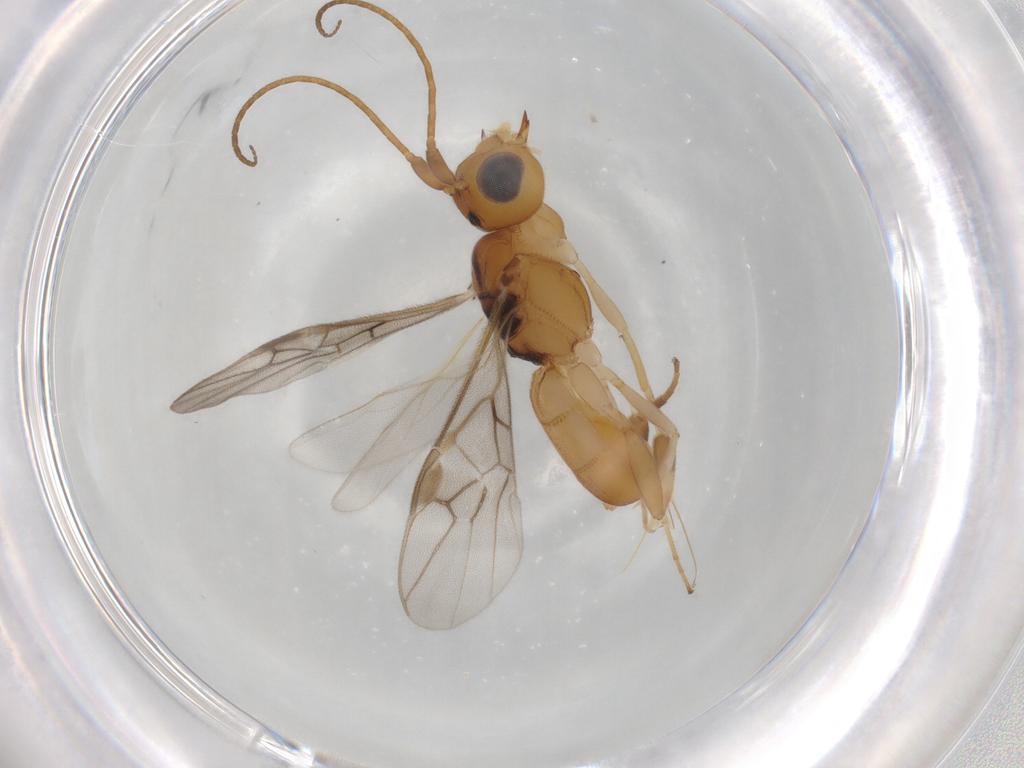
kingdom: Animalia
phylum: Arthropoda
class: Insecta
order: Hymenoptera
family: Braconidae
